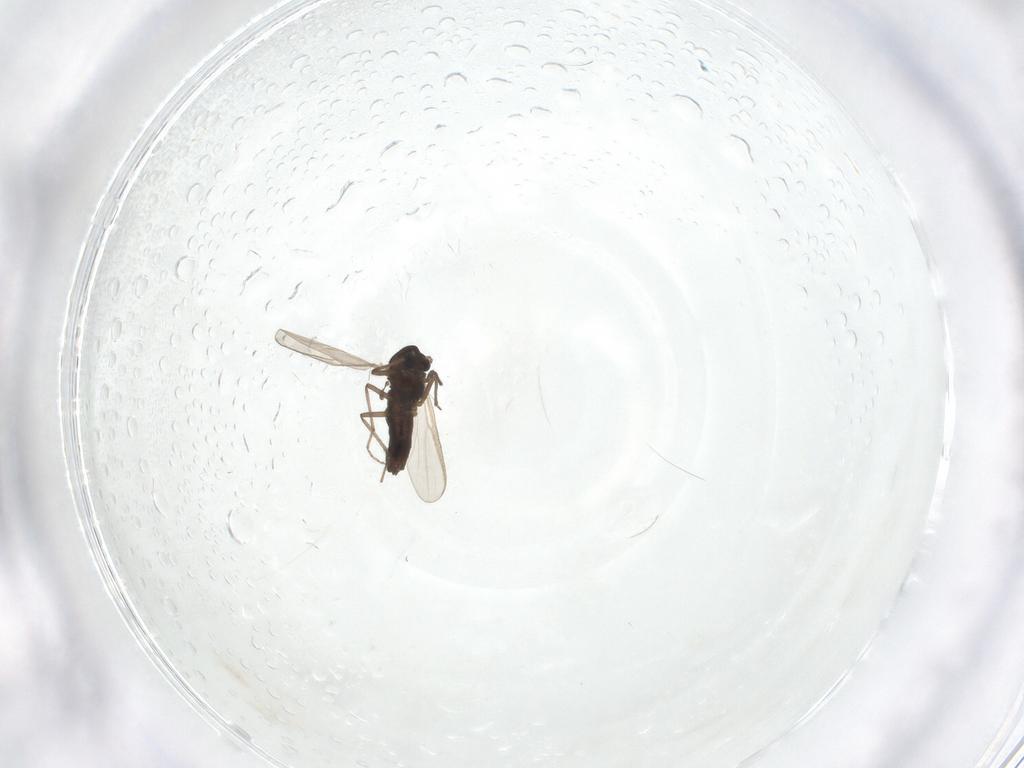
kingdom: Animalia
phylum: Arthropoda
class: Insecta
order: Diptera
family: Chironomidae
